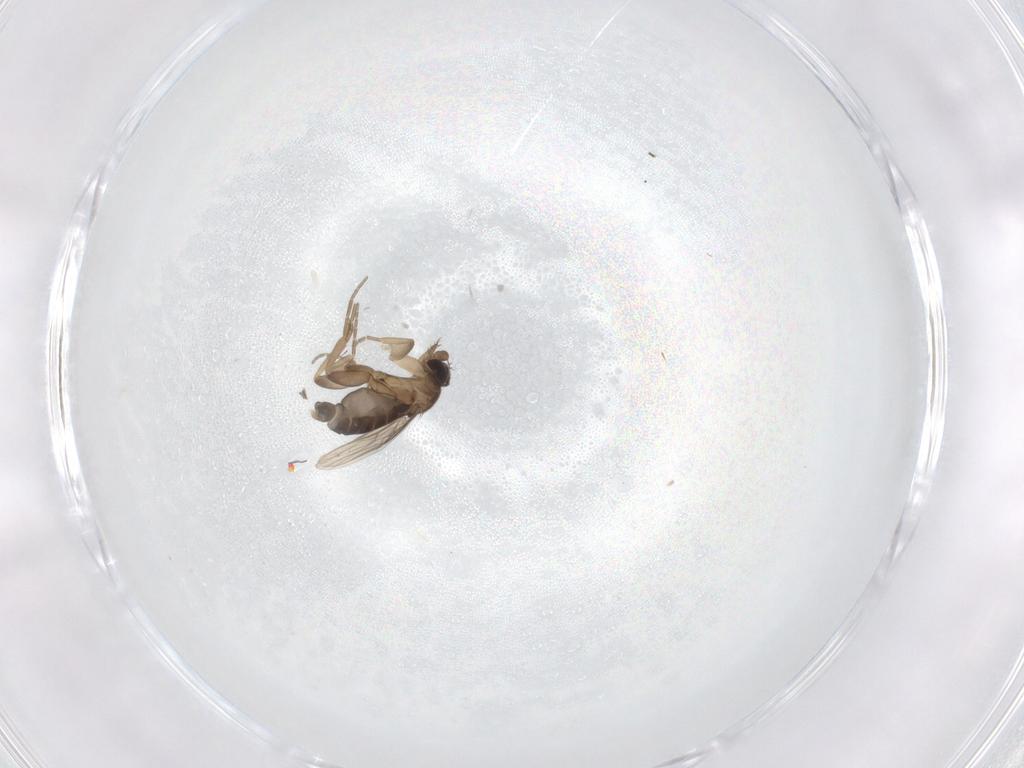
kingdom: Animalia
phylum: Arthropoda
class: Insecta
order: Diptera
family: Phoridae
